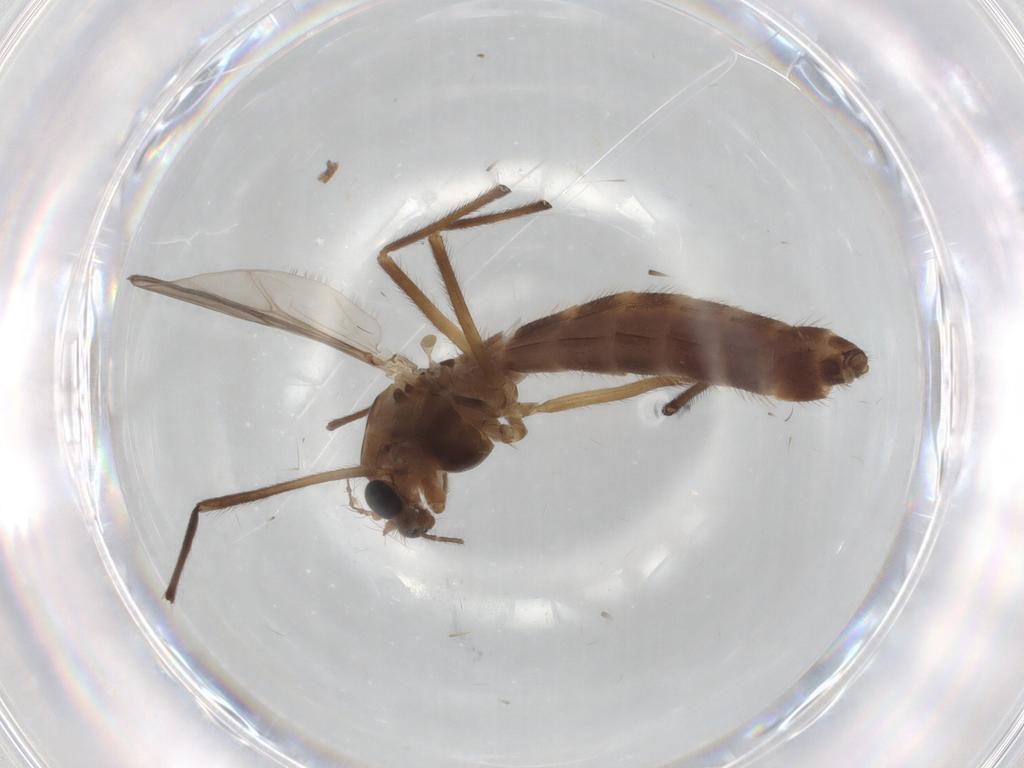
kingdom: Animalia
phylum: Arthropoda
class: Insecta
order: Diptera
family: Chironomidae
